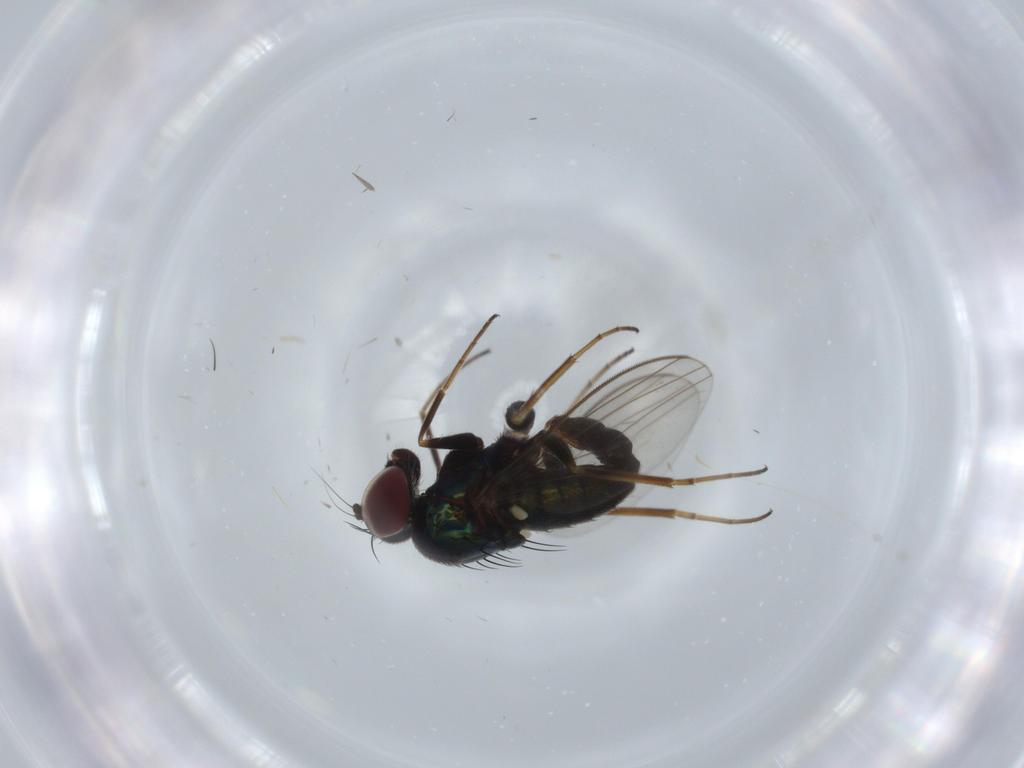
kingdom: Animalia
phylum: Arthropoda
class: Insecta
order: Diptera
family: Dolichopodidae
